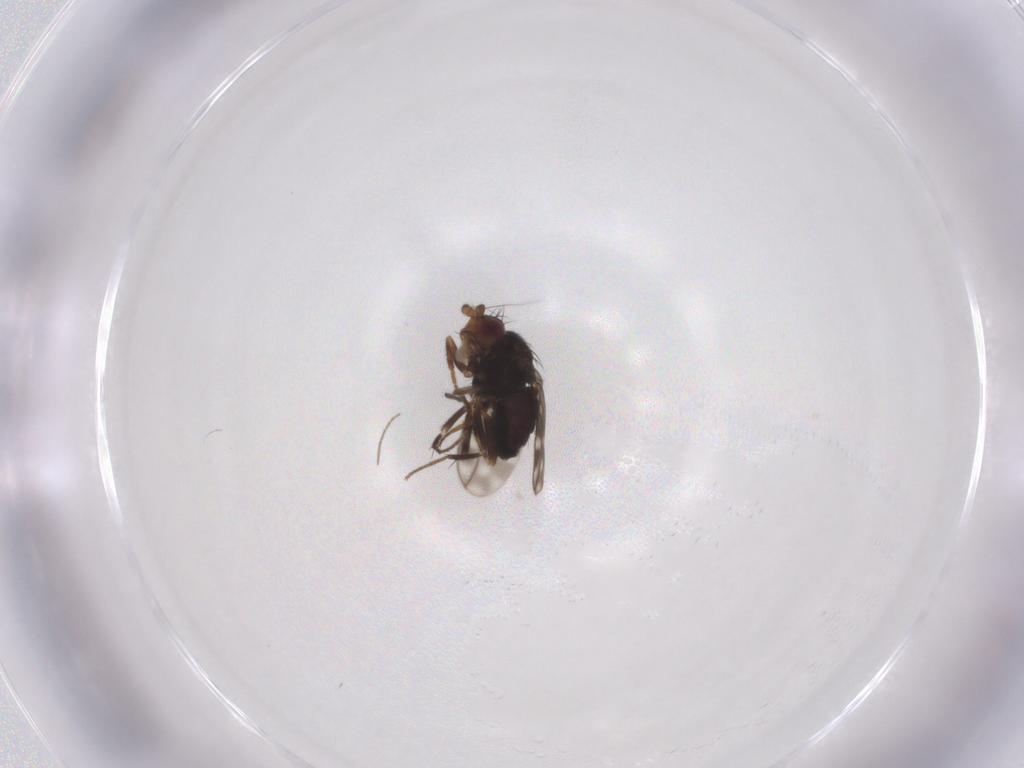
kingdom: Animalia
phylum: Arthropoda
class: Insecta
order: Diptera
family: Sphaeroceridae
